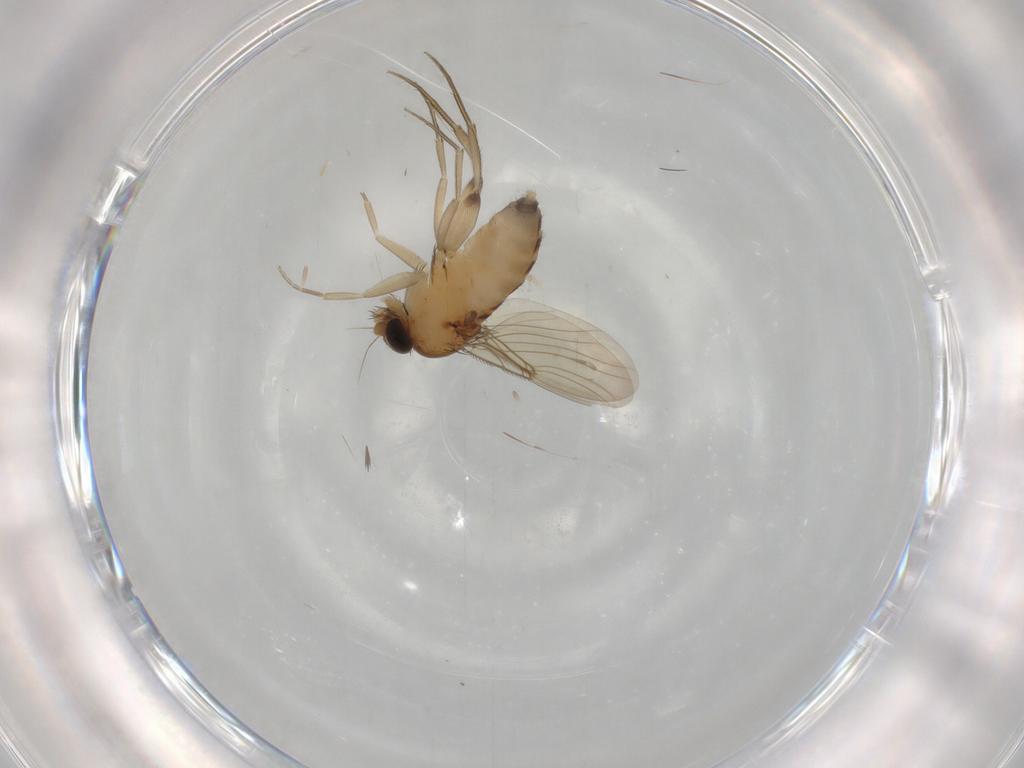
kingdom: Animalia
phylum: Arthropoda
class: Insecta
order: Diptera
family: Phoridae
